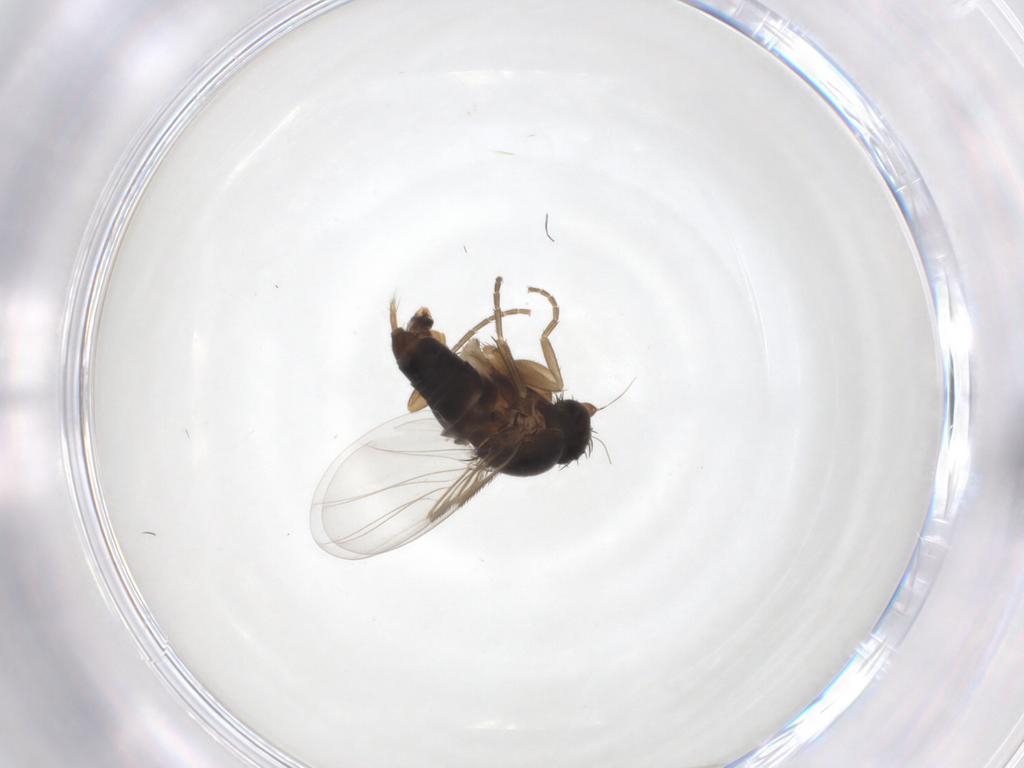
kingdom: Animalia
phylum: Arthropoda
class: Insecta
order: Diptera
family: Phoridae
